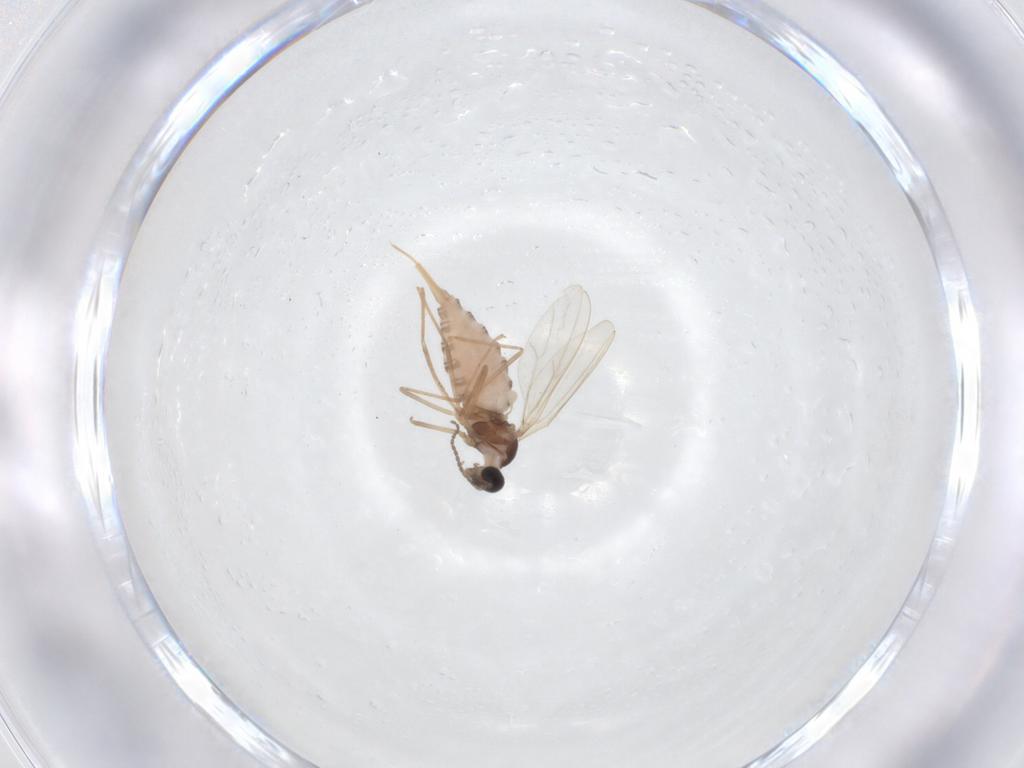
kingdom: Animalia
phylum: Arthropoda
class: Insecta
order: Diptera
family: Cecidomyiidae
